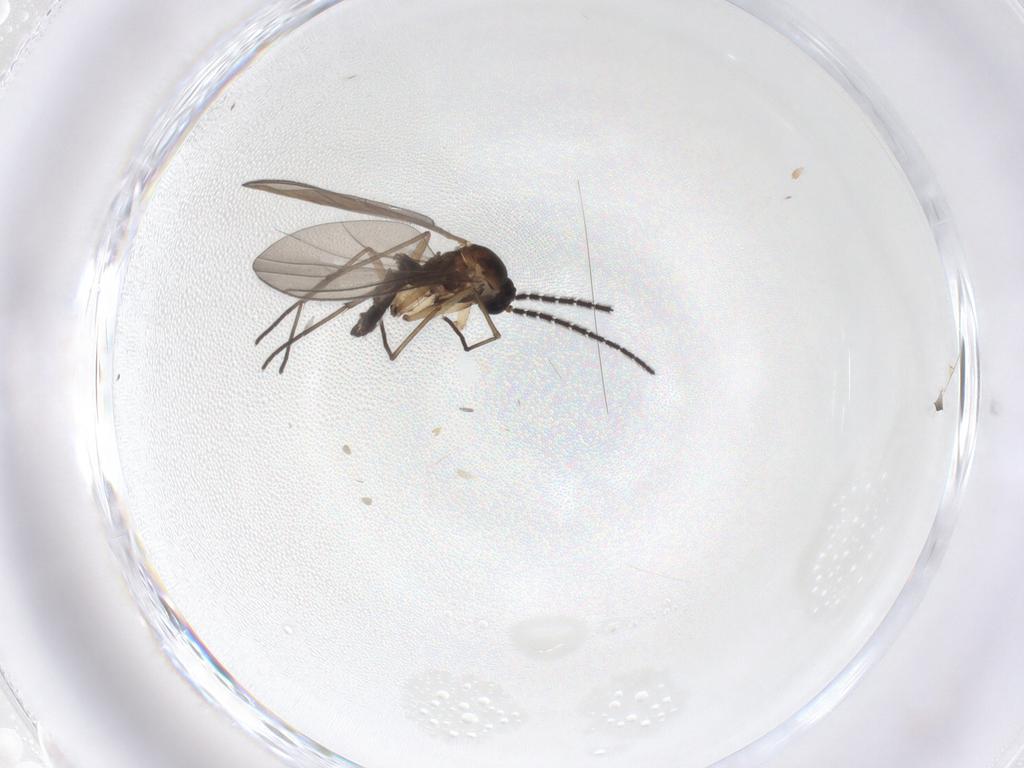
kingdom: Animalia
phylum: Arthropoda
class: Insecta
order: Diptera
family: Sciaridae
